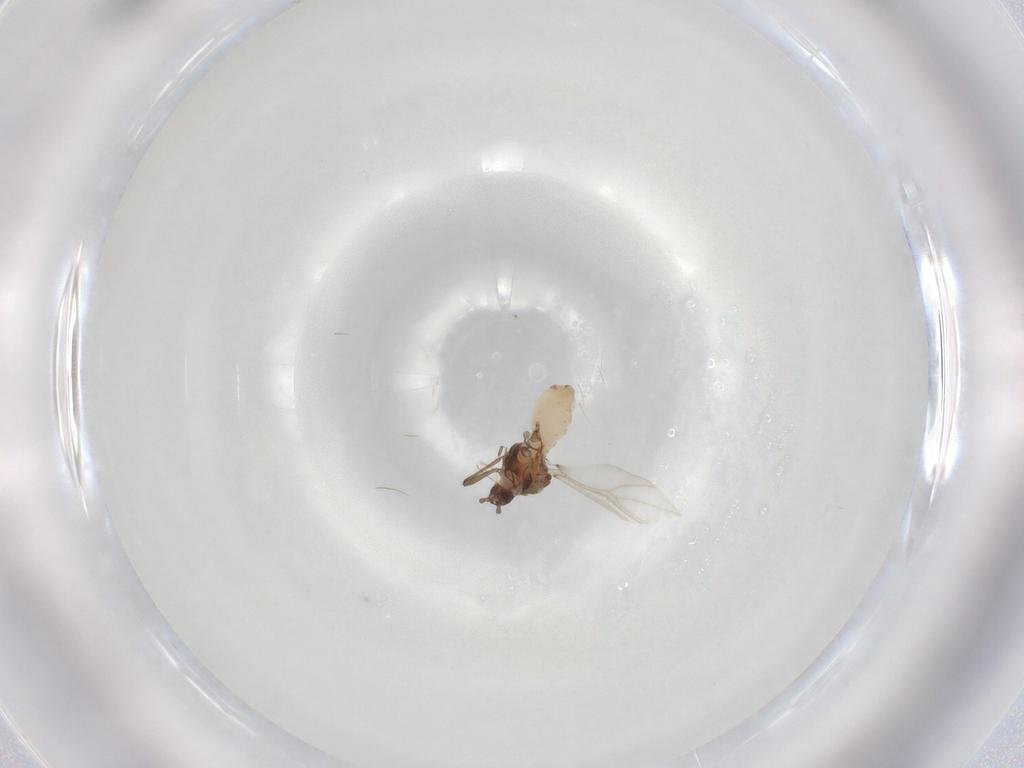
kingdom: Animalia
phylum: Arthropoda
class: Insecta
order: Hemiptera
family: Aphididae
